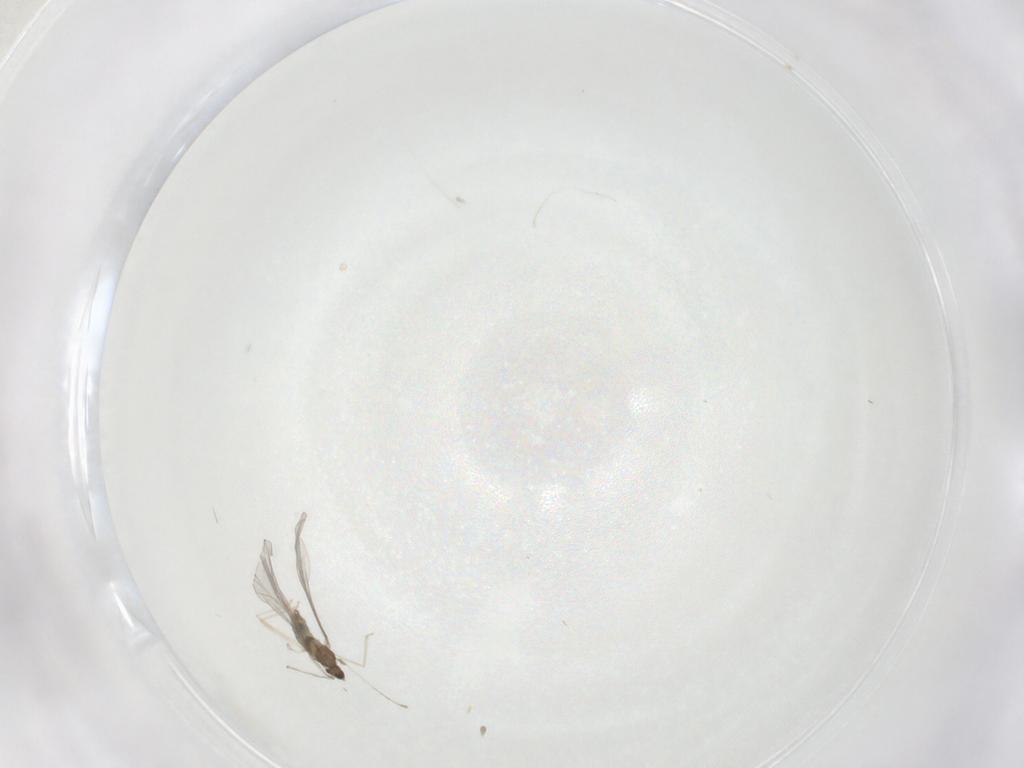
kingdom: Animalia
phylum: Arthropoda
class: Insecta
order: Diptera
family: Cecidomyiidae
